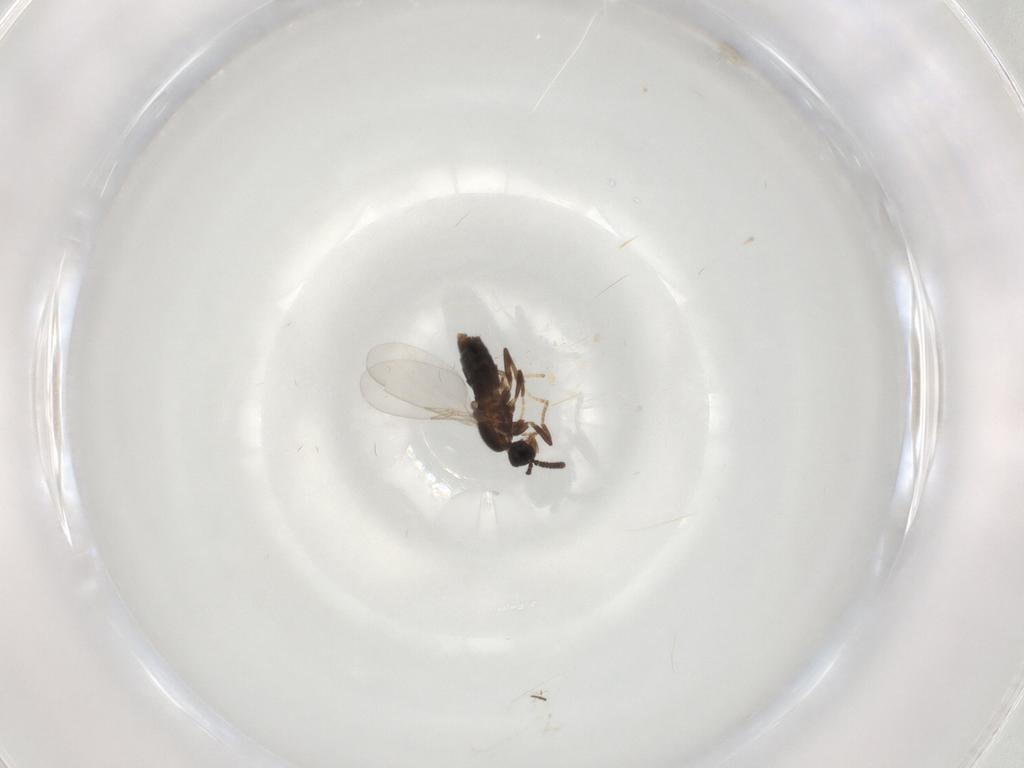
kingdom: Animalia
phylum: Arthropoda
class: Insecta
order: Diptera
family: Scatopsidae
